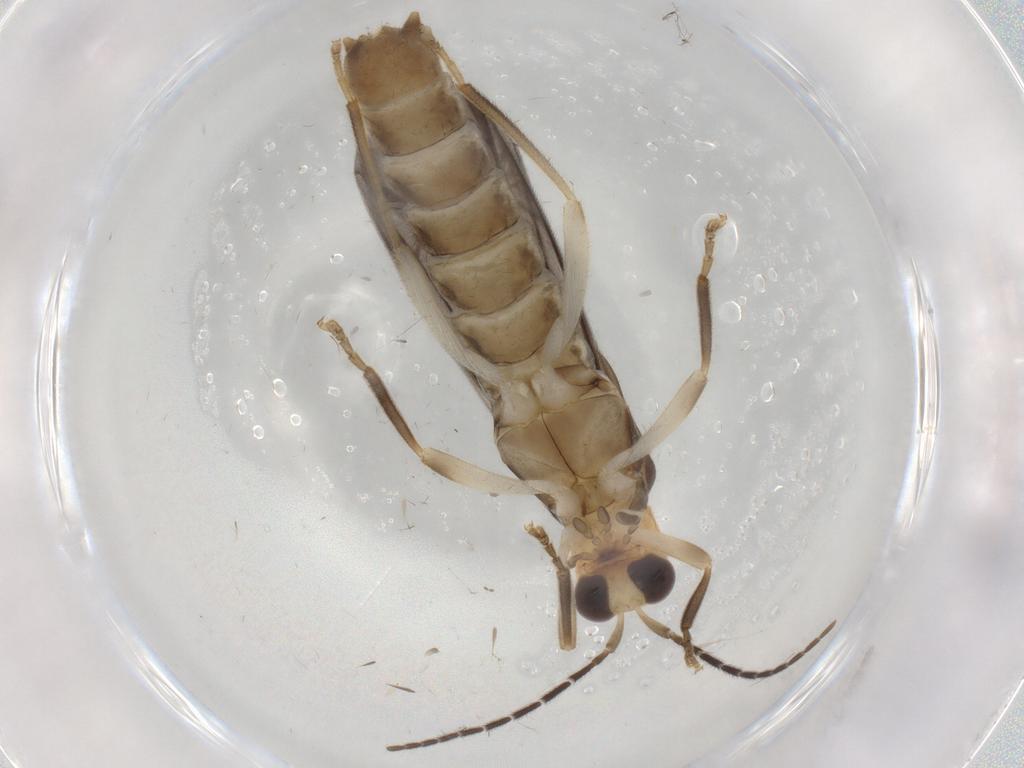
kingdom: Animalia
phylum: Arthropoda
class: Insecta
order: Coleoptera
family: Cantharidae
